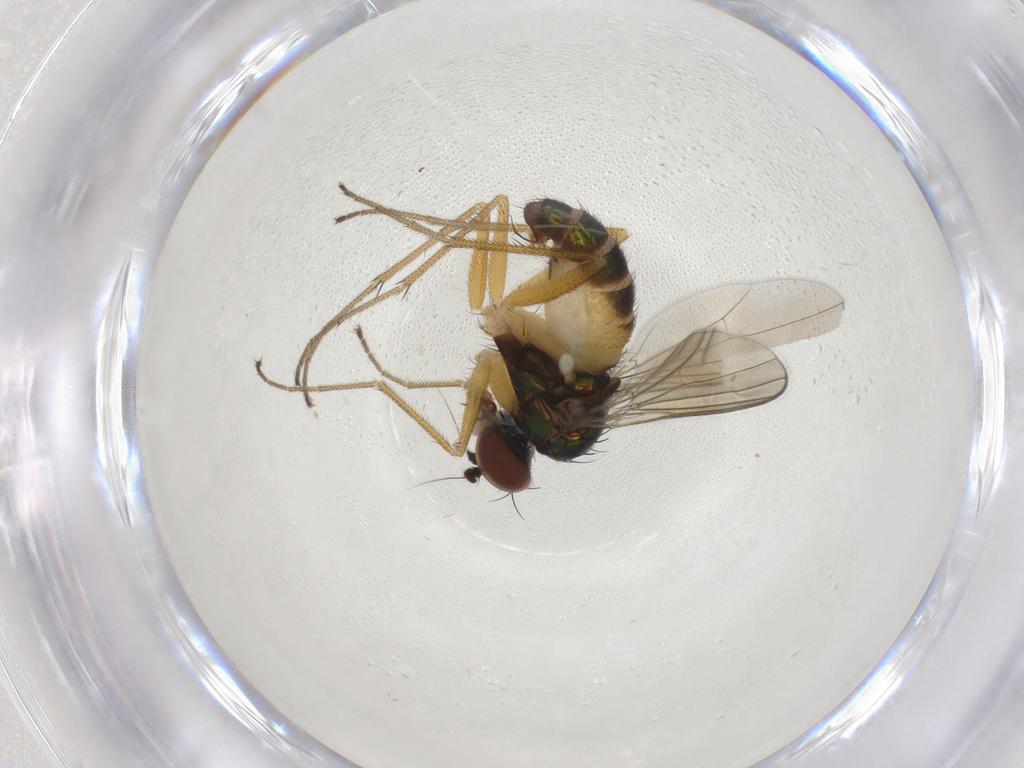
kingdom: Animalia
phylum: Arthropoda
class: Insecta
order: Diptera
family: Dolichopodidae
